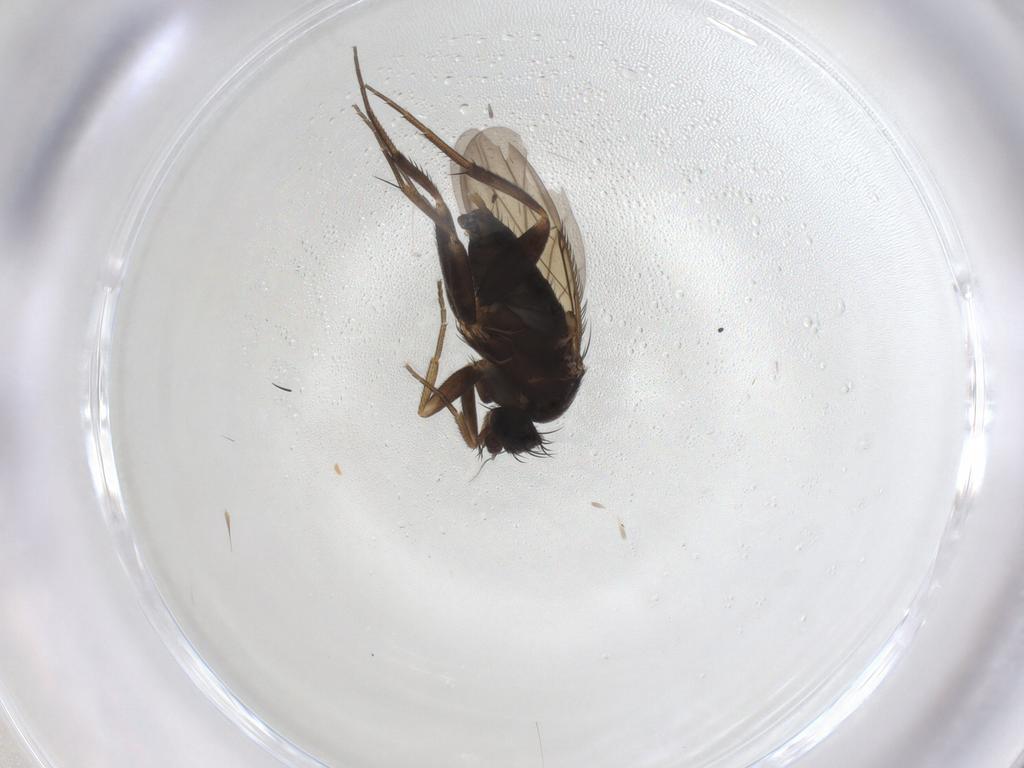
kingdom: Animalia
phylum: Arthropoda
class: Insecta
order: Diptera
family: Phoridae
